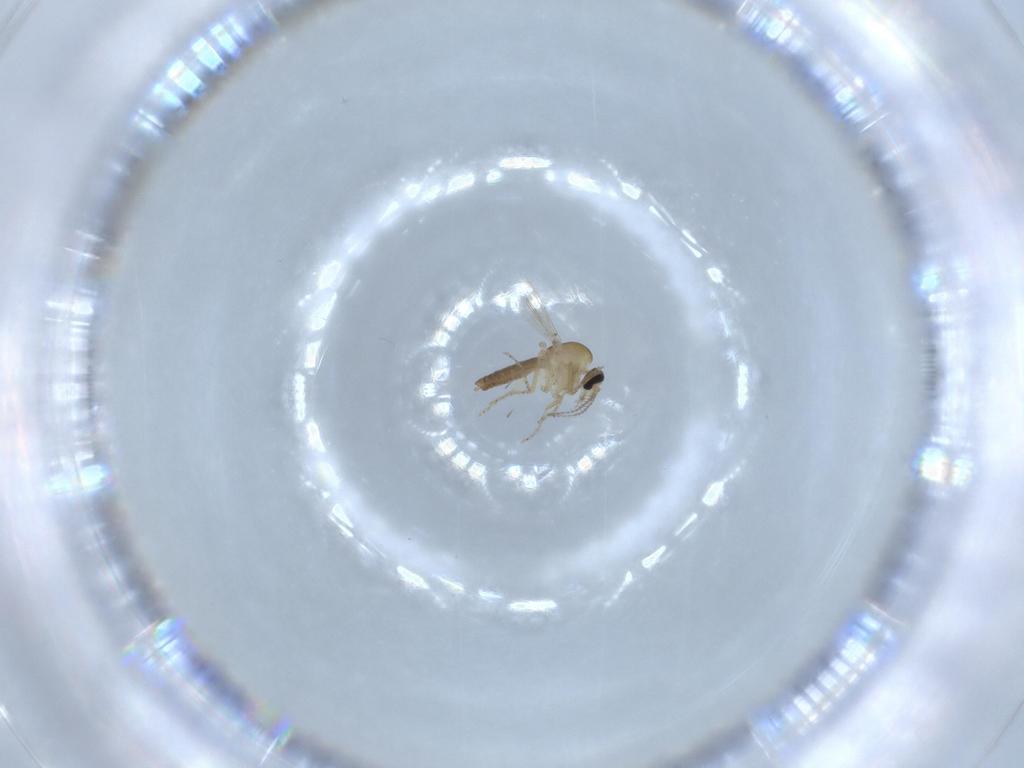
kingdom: Animalia
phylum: Arthropoda
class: Insecta
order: Diptera
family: Ceratopogonidae
